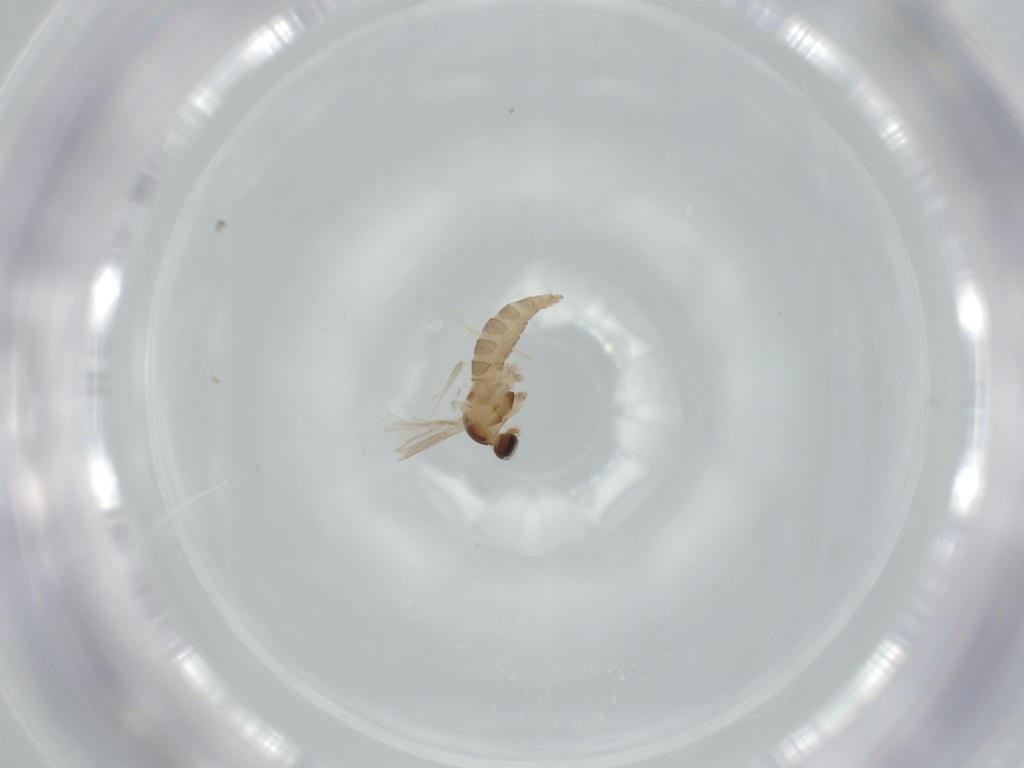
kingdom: Animalia
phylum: Arthropoda
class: Insecta
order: Diptera
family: Cecidomyiidae
